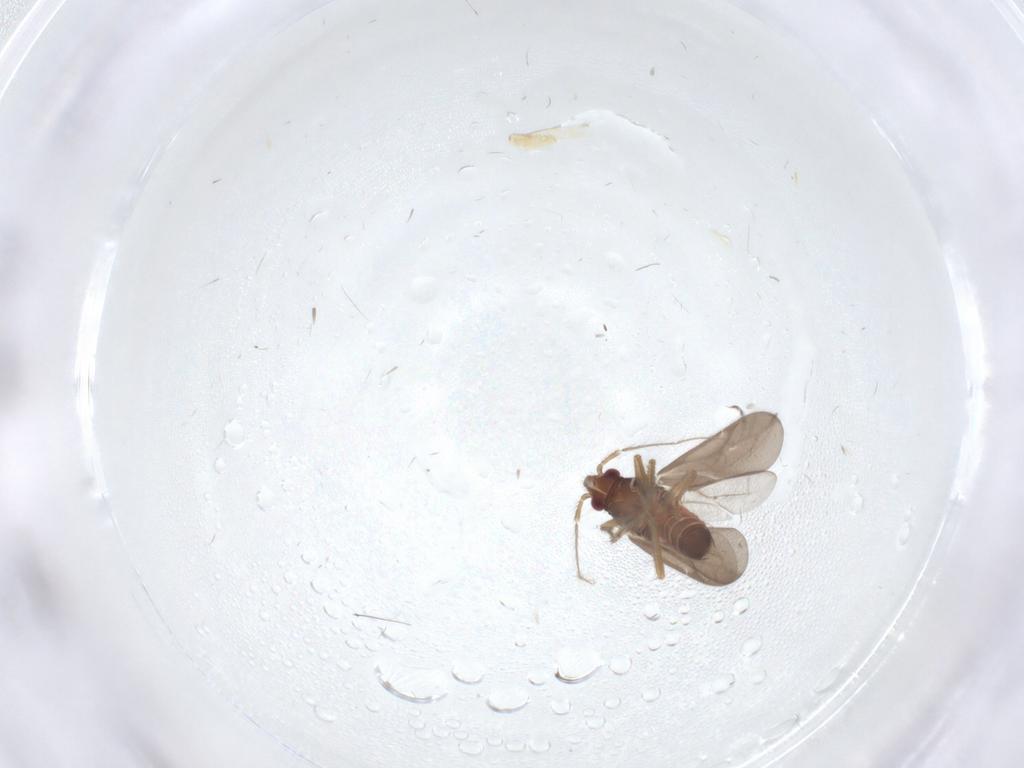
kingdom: Animalia
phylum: Arthropoda
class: Insecta
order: Hemiptera
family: Ceratocombidae
